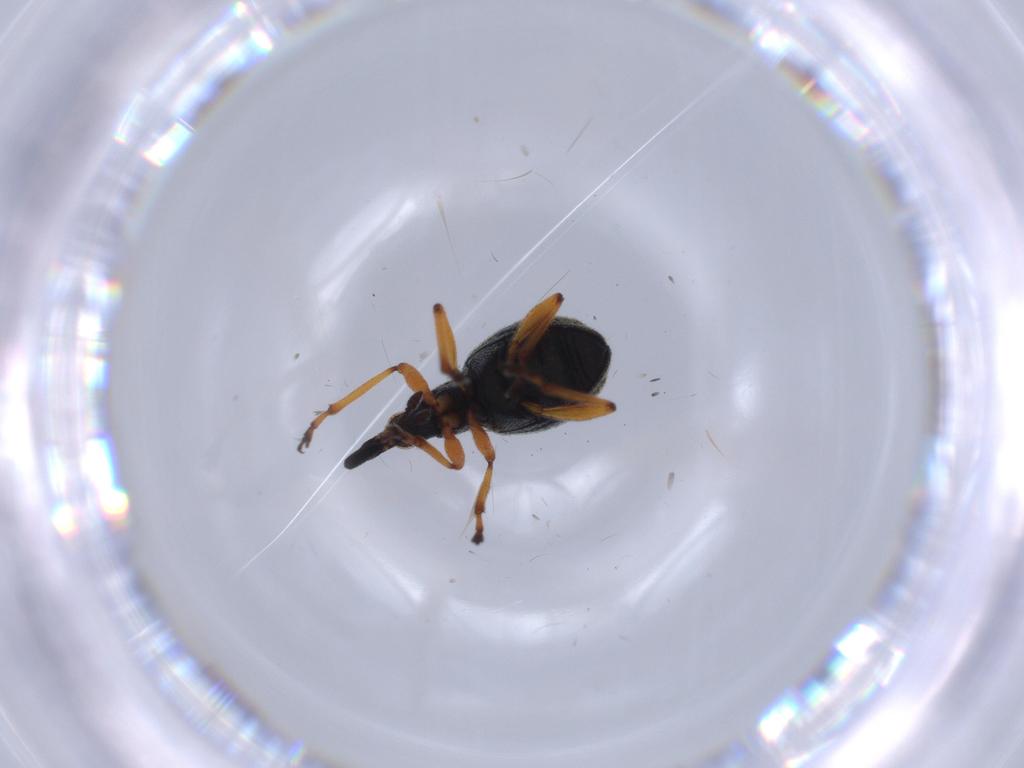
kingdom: Animalia
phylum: Arthropoda
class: Insecta
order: Coleoptera
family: Brentidae
